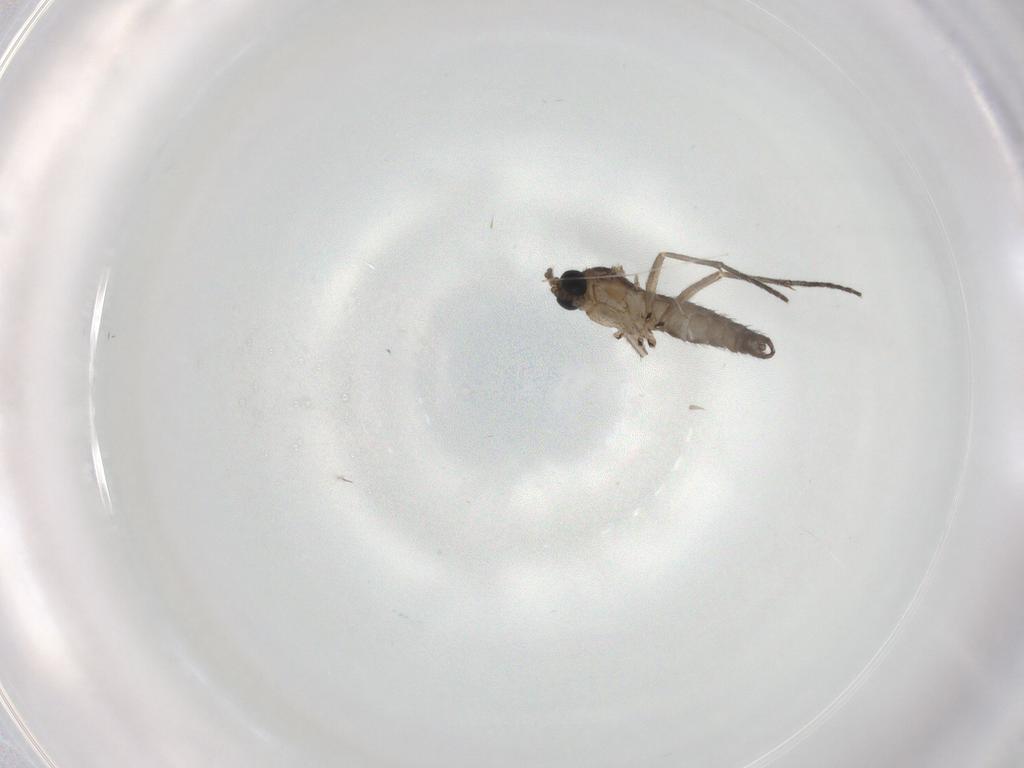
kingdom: Animalia
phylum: Arthropoda
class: Insecta
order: Diptera
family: Sciaridae
